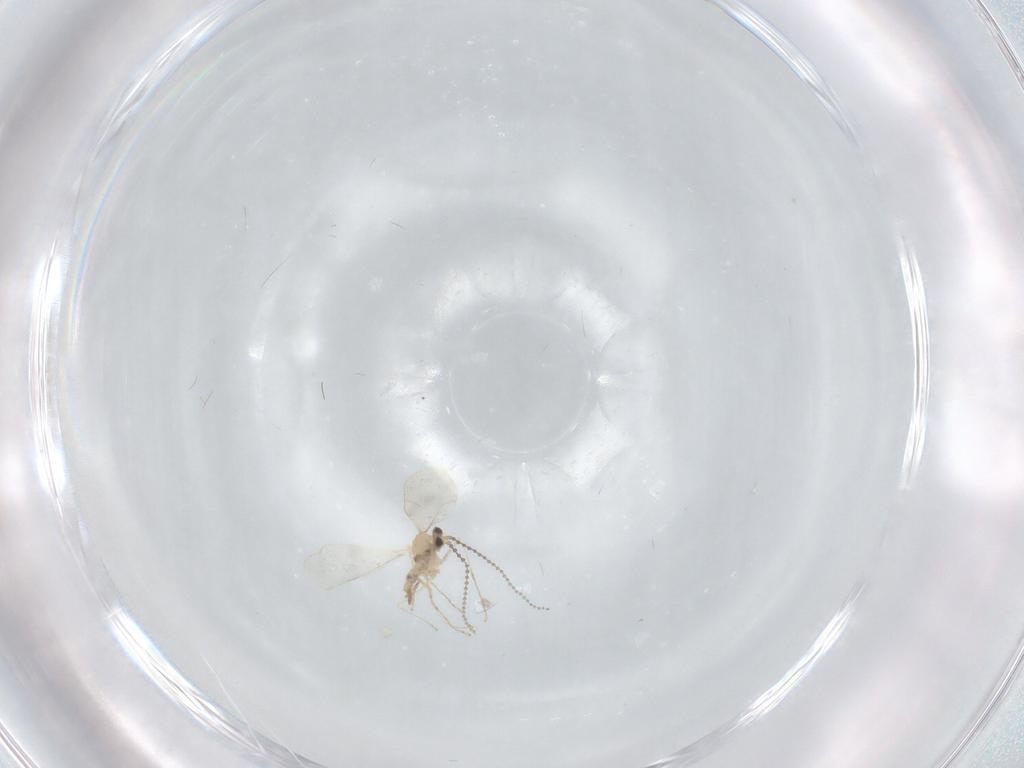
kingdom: Animalia
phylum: Arthropoda
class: Insecta
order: Diptera
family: Cecidomyiidae
